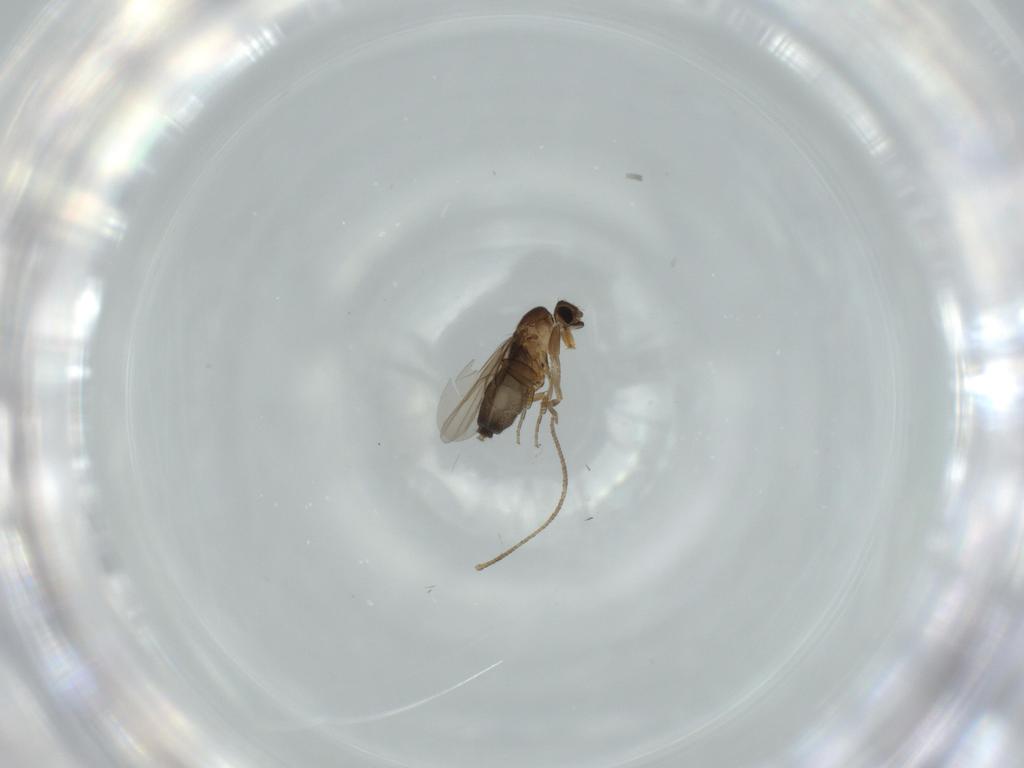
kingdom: Animalia
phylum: Arthropoda
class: Insecta
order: Diptera
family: Phoridae
